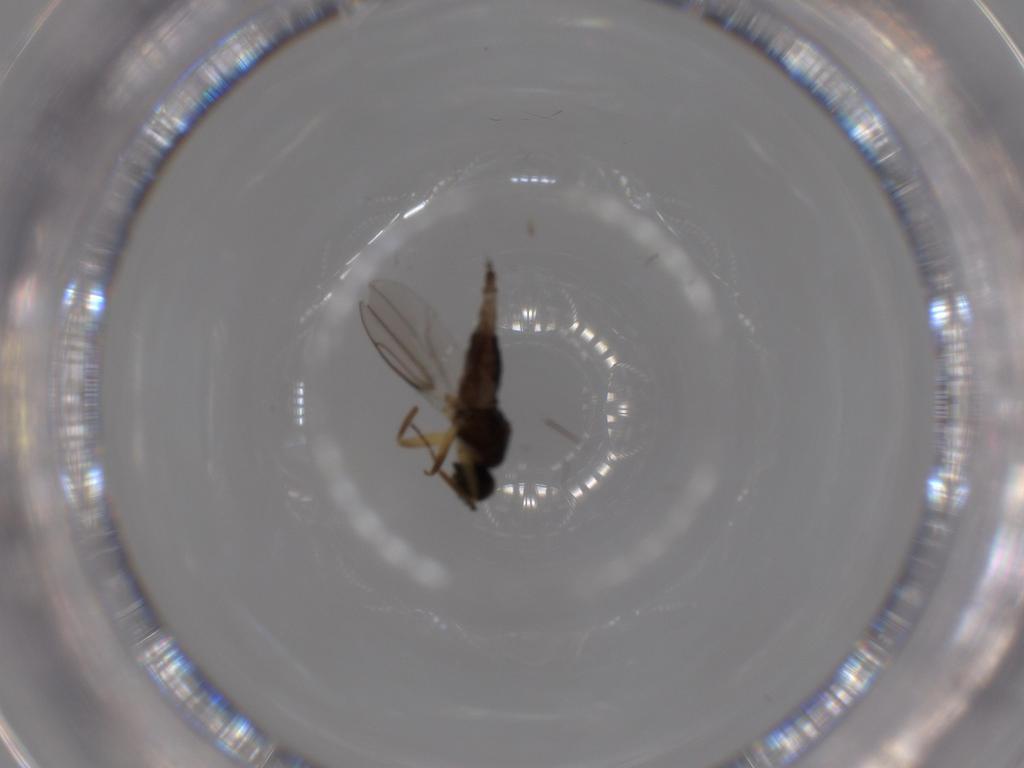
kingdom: Animalia
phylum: Arthropoda
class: Insecta
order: Diptera
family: Hybotidae
